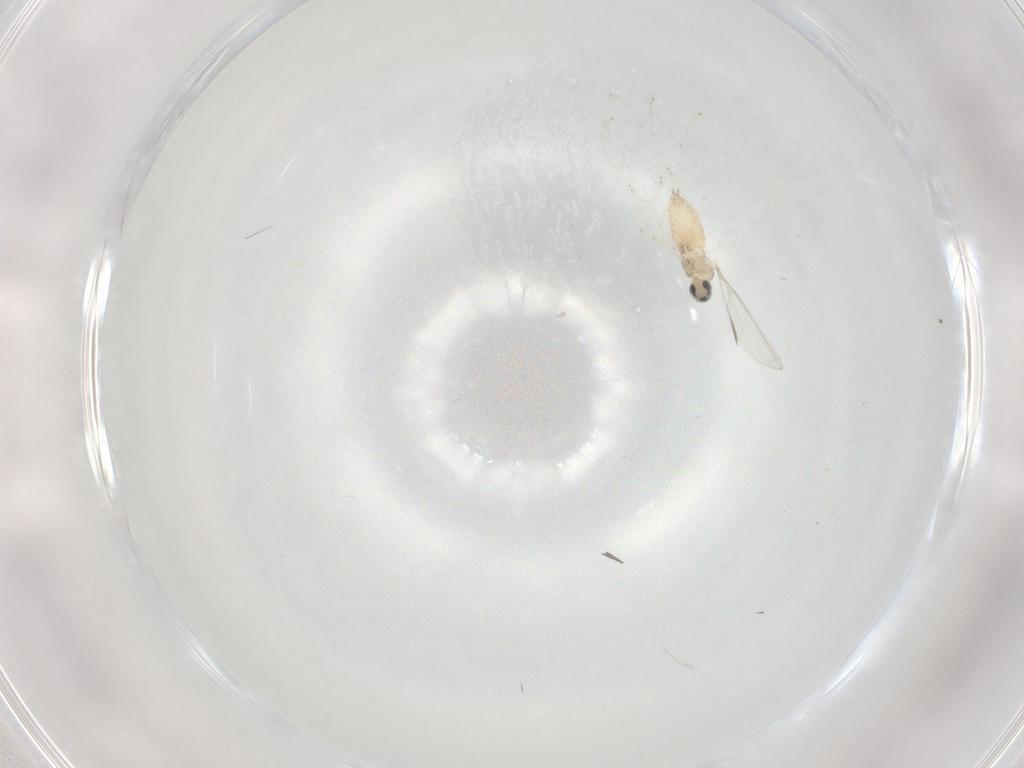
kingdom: Animalia
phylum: Arthropoda
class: Insecta
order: Diptera
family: Cecidomyiidae
